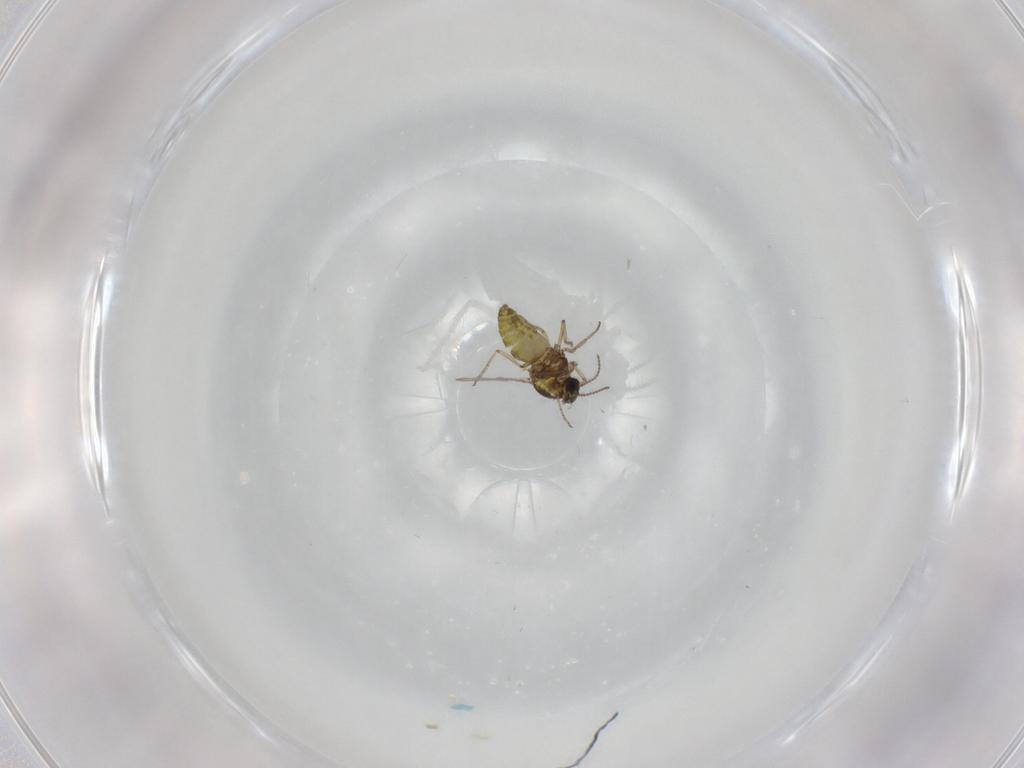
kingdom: Animalia
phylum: Arthropoda
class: Insecta
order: Diptera
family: Ceratopogonidae
